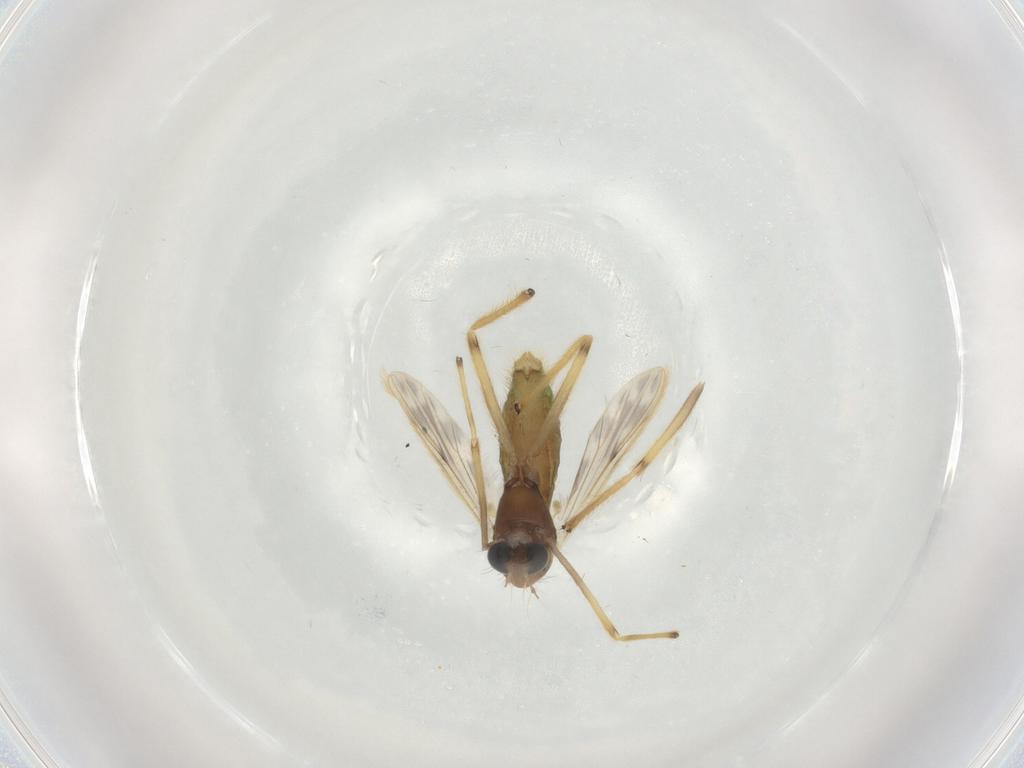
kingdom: Animalia
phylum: Arthropoda
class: Insecta
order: Diptera
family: Chironomidae
